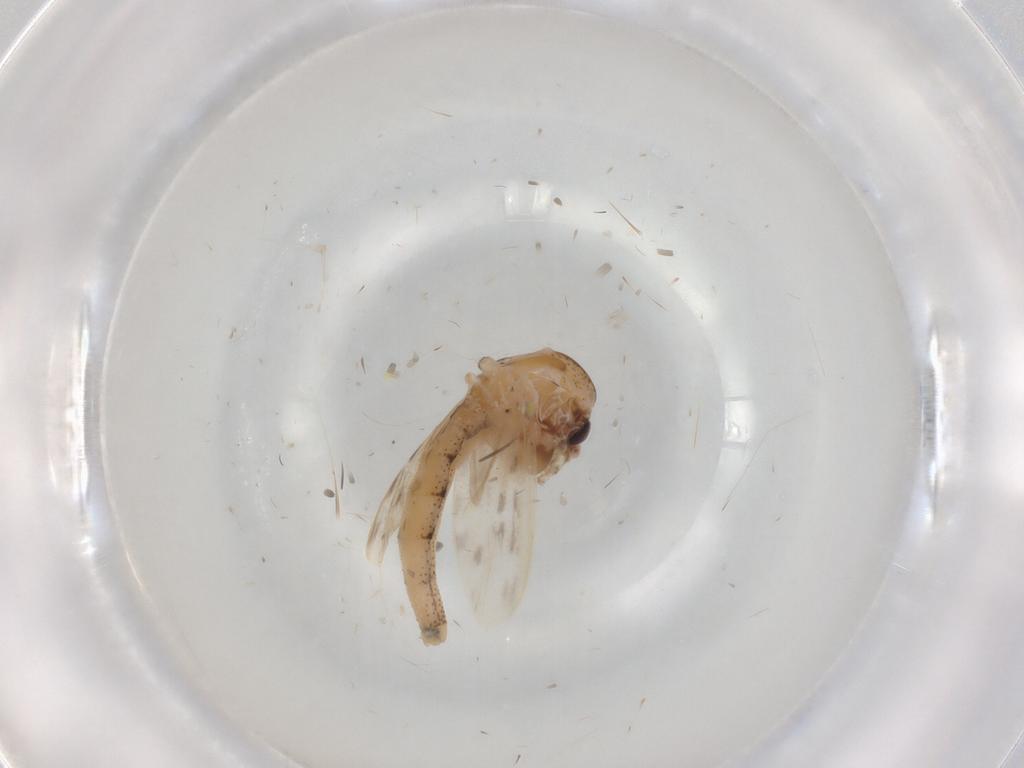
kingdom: Animalia
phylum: Arthropoda
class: Insecta
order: Diptera
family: Chaoboridae
